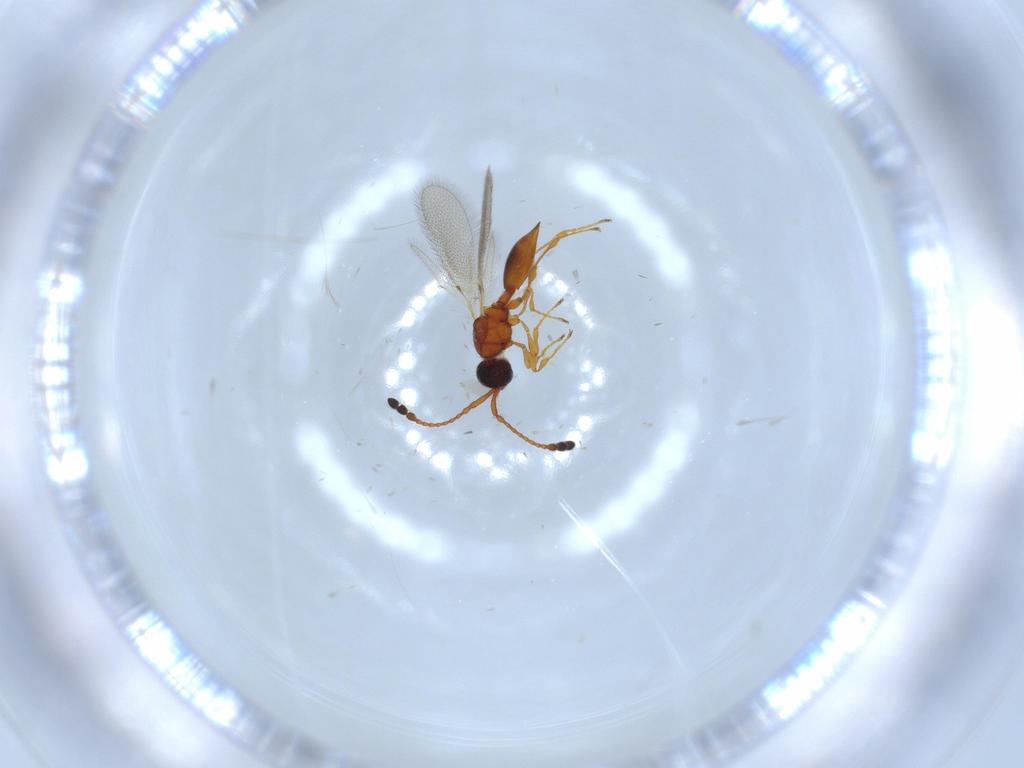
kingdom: Animalia
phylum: Arthropoda
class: Insecta
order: Hymenoptera
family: Diapriidae
